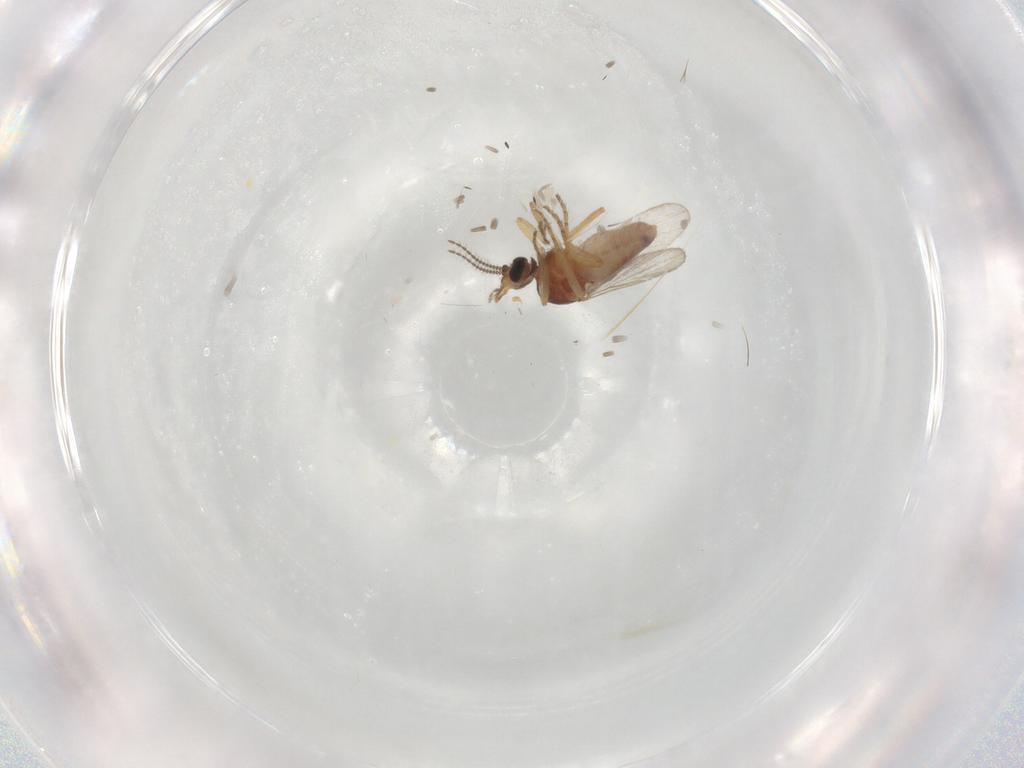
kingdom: Animalia
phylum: Arthropoda
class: Insecta
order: Diptera
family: Ceratopogonidae
